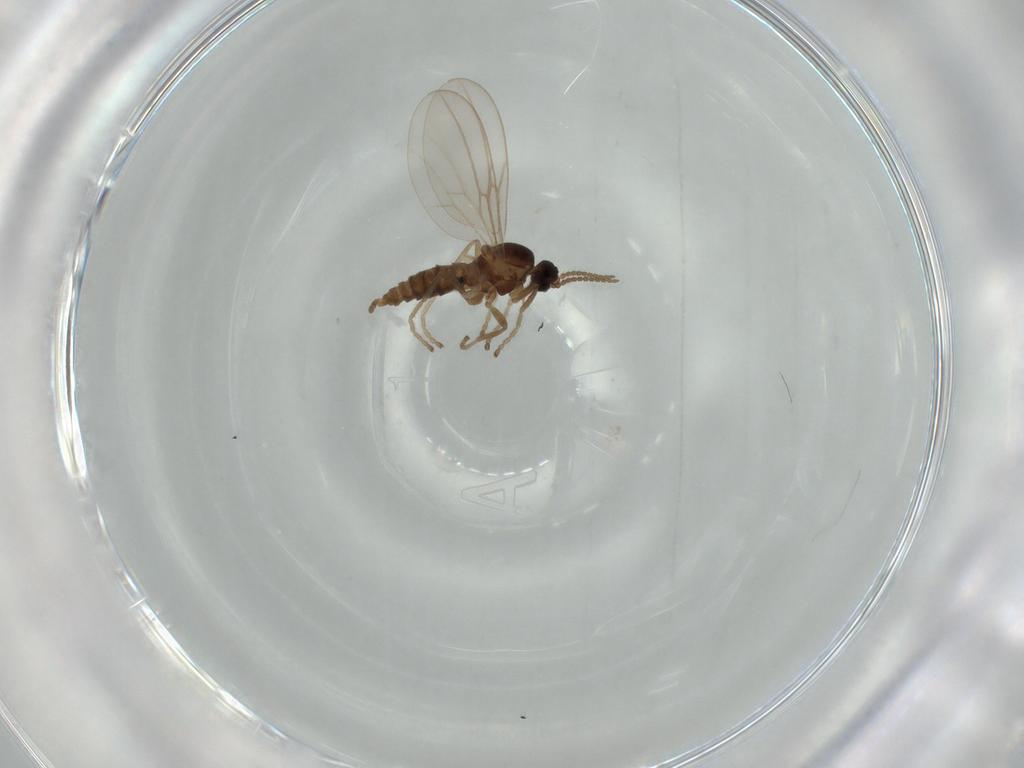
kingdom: Animalia
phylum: Arthropoda
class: Insecta
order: Diptera
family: Cecidomyiidae
